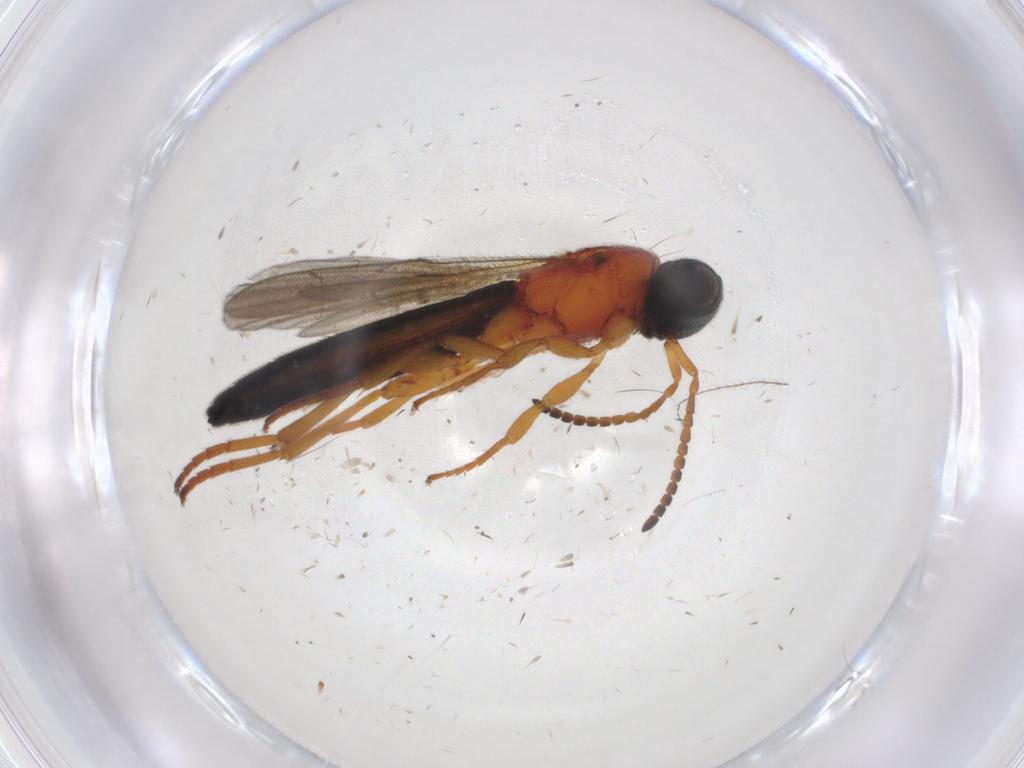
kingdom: Animalia
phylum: Arthropoda
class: Insecta
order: Hymenoptera
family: Scelionidae
